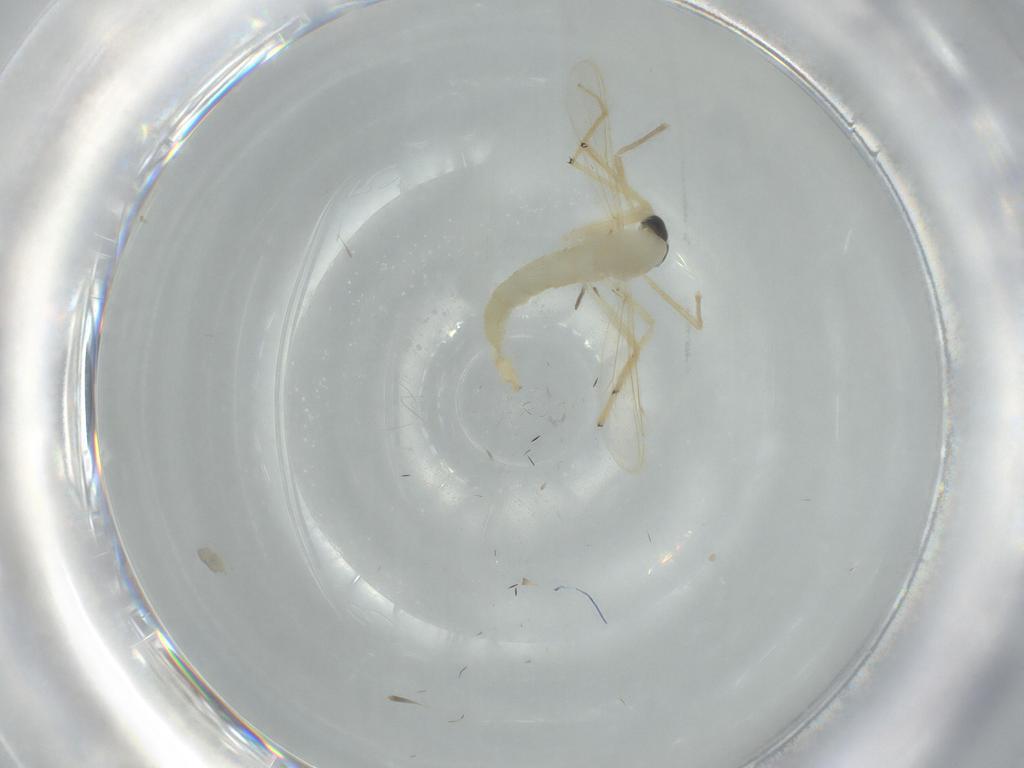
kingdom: Animalia
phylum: Arthropoda
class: Insecta
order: Diptera
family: Chironomidae
